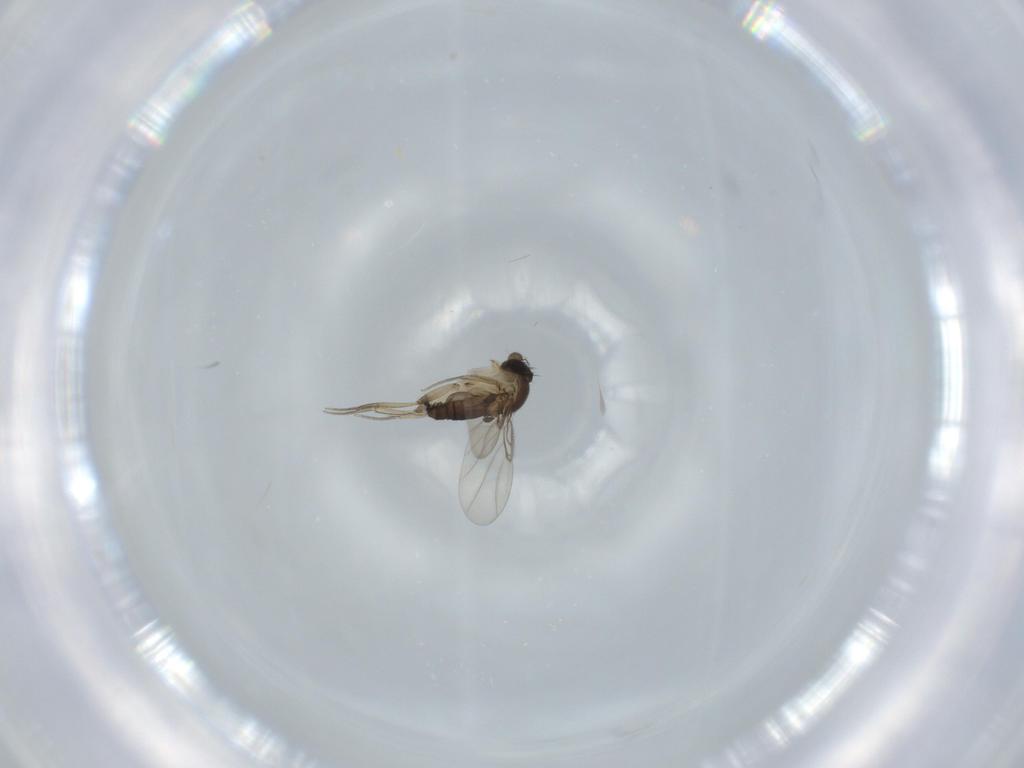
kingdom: Animalia
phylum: Arthropoda
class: Insecta
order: Diptera
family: Phoridae
